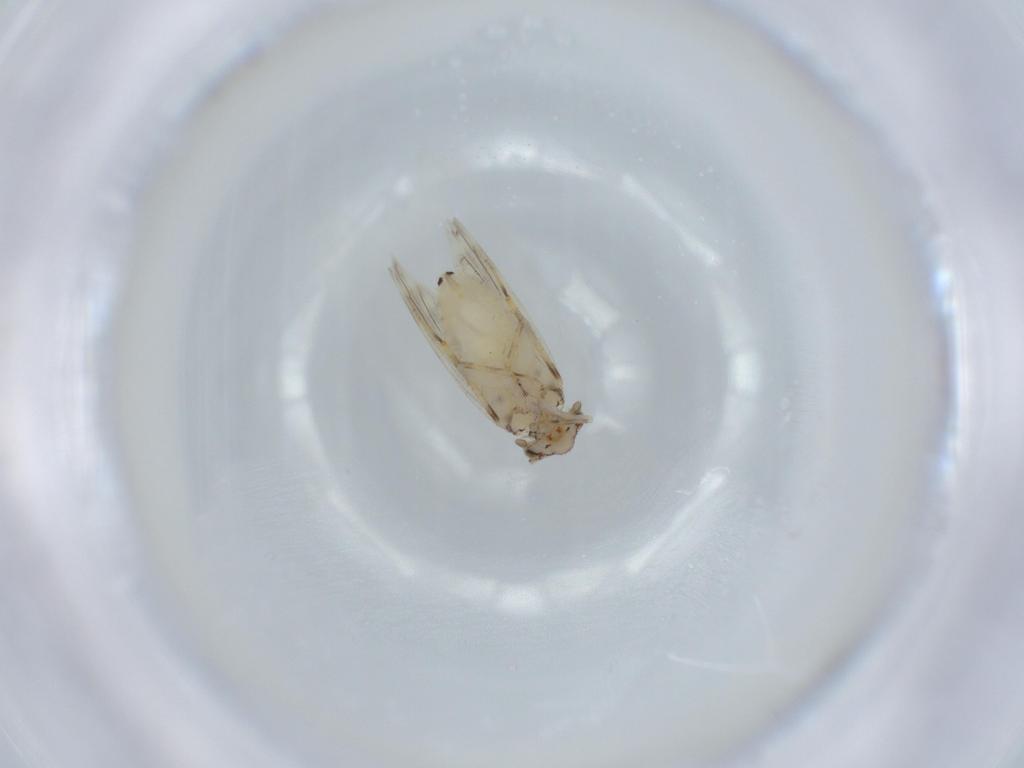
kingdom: Animalia
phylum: Arthropoda
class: Insecta
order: Psocodea
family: Lepidopsocidae
